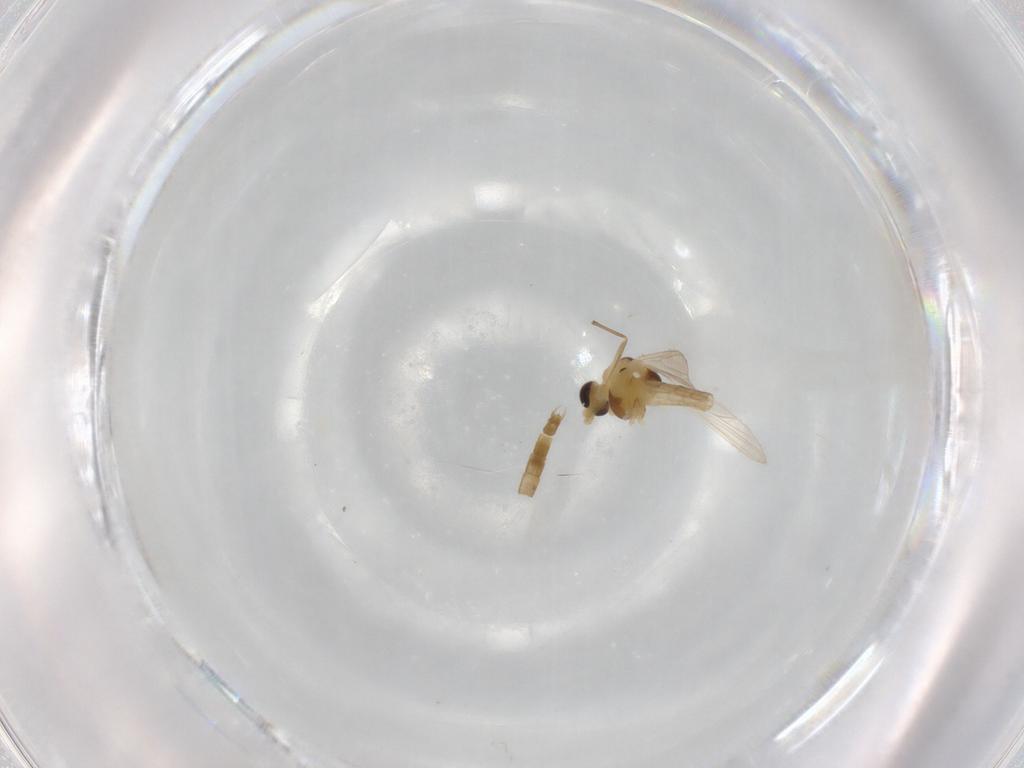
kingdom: Animalia
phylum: Arthropoda
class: Insecta
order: Diptera
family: Chironomidae
